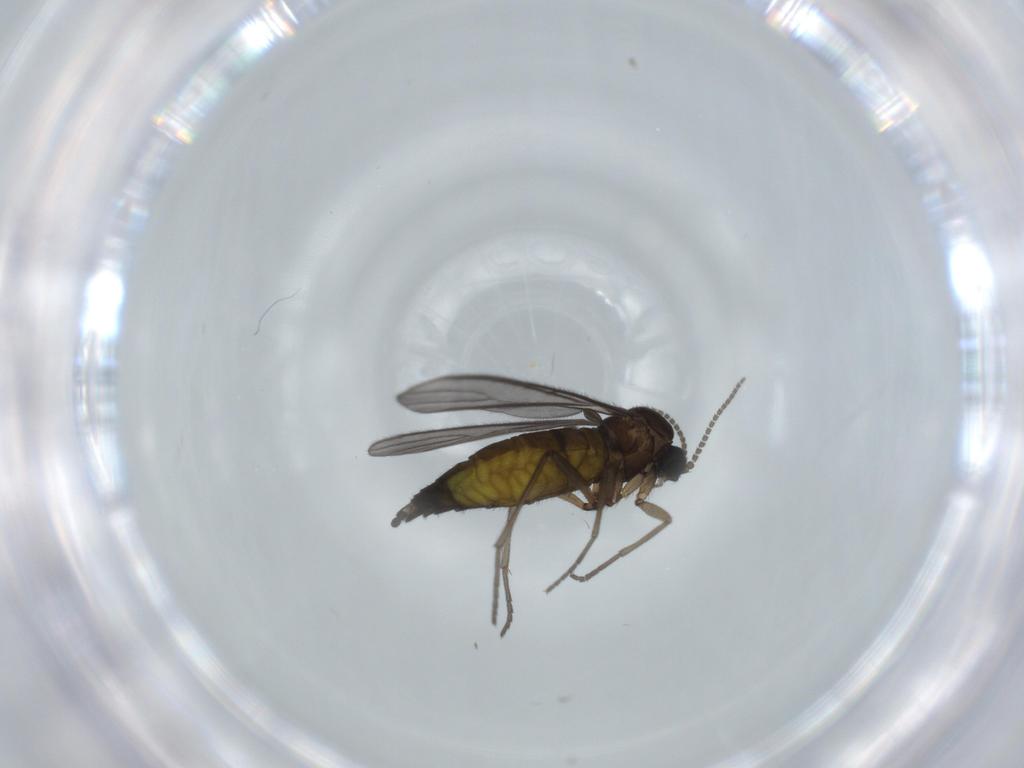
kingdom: Animalia
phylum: Arthropoda
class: Insecta
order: Diptera
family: Sciaridae
